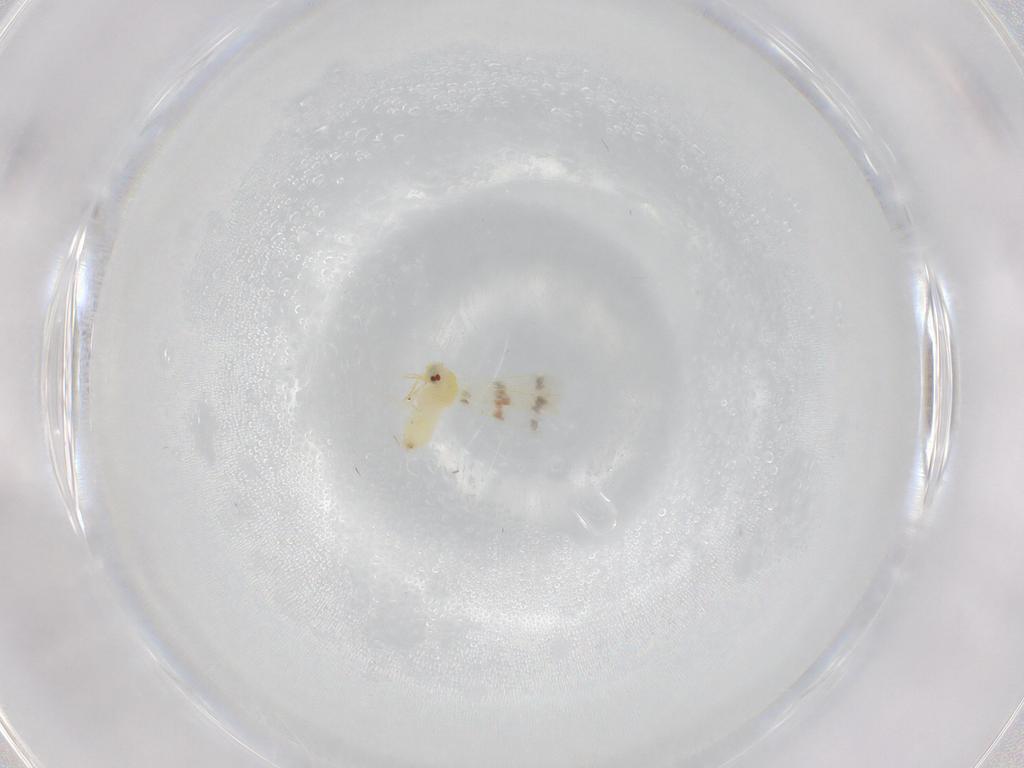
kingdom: Animalia
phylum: Arthropoda
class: Insecta
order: Hemiptera
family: Aleyrodidae
